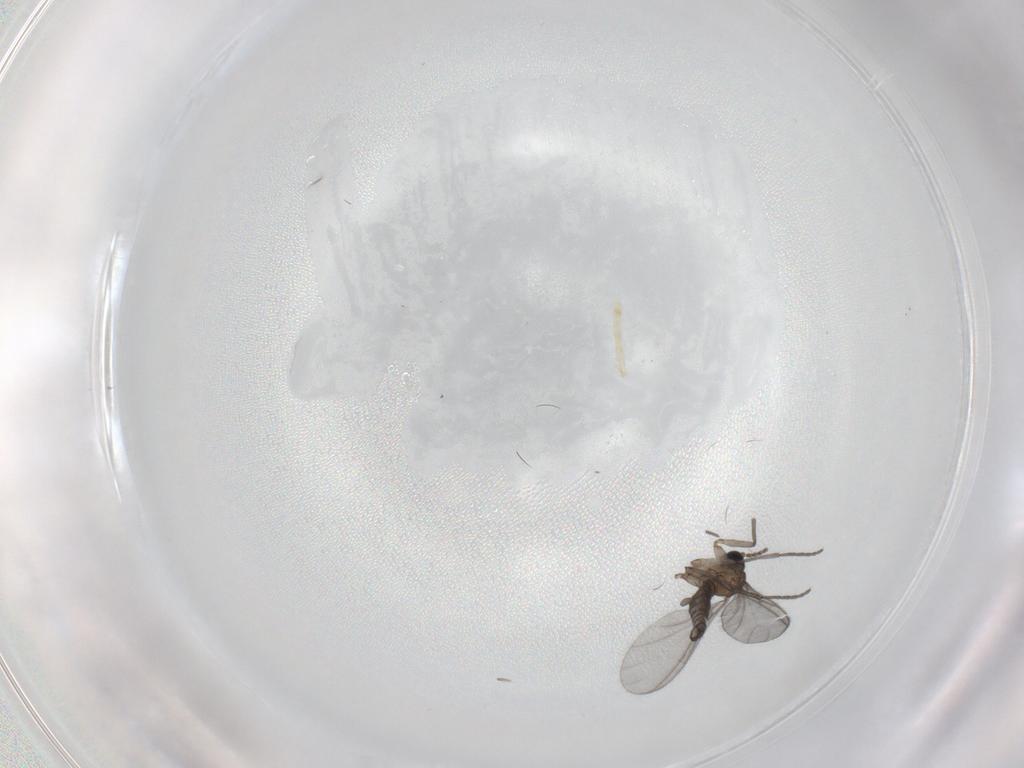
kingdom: Animalia
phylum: Arthropoda
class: Insecta
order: Diptera
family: Sciaridae
